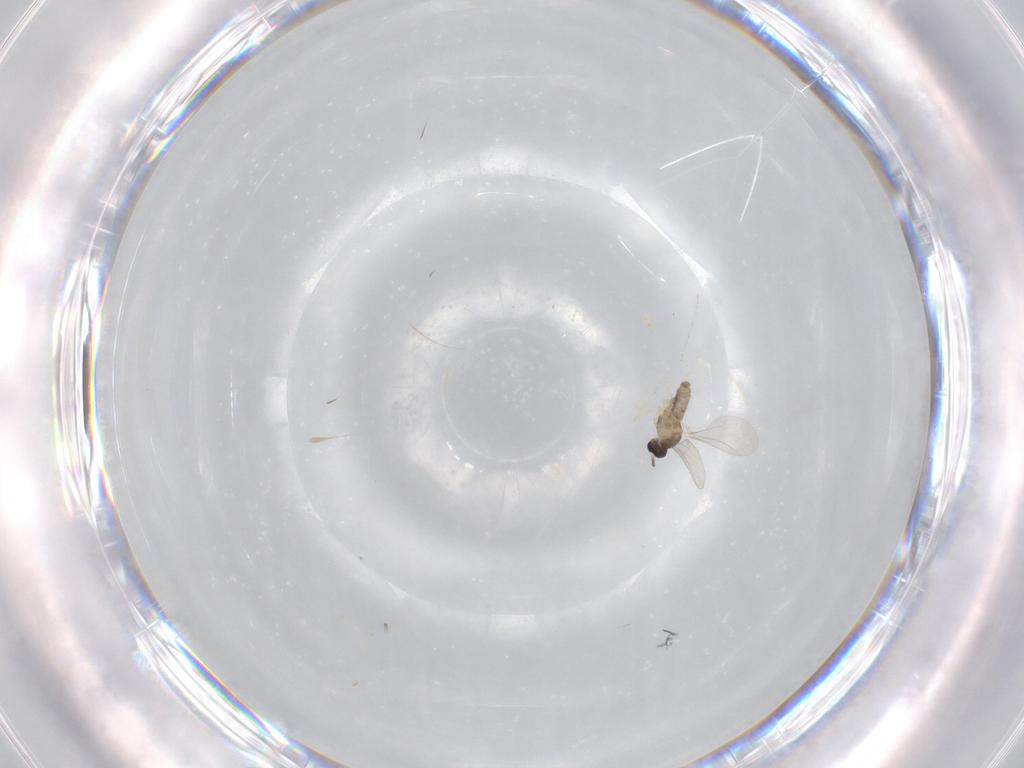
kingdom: Animalia
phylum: Arthropoda
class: Insecta
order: Diptera
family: Cecidomyiidae
